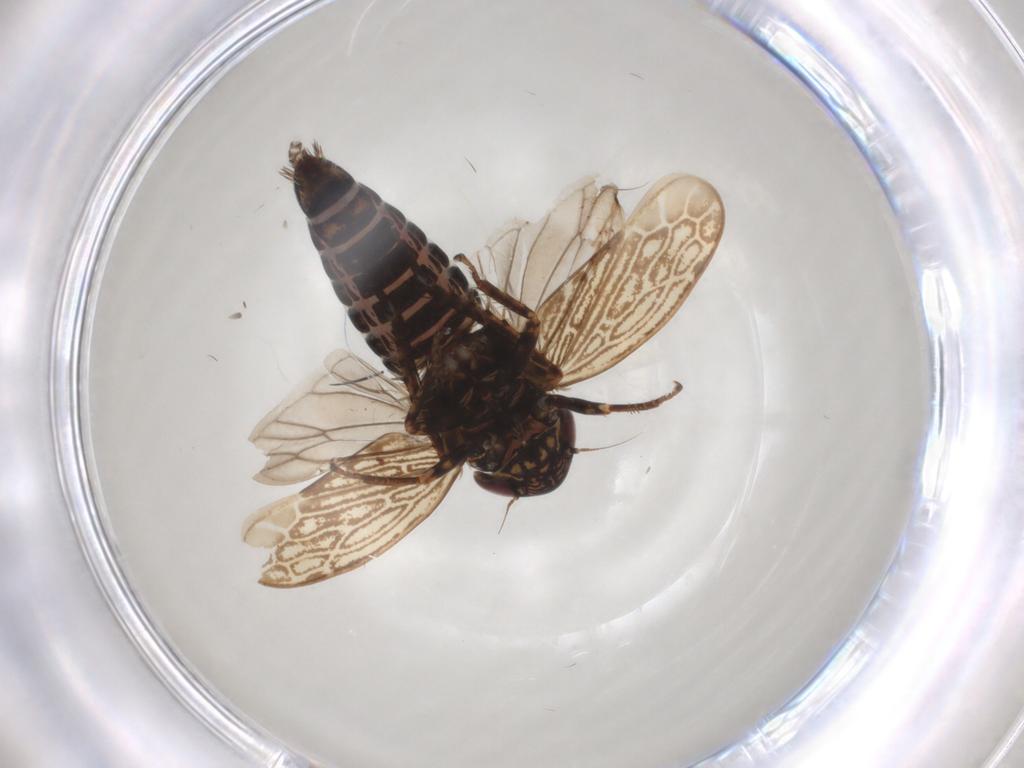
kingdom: Animalia
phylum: Arthropoda
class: Insecta
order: Hemiptera
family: Cicadellidae
